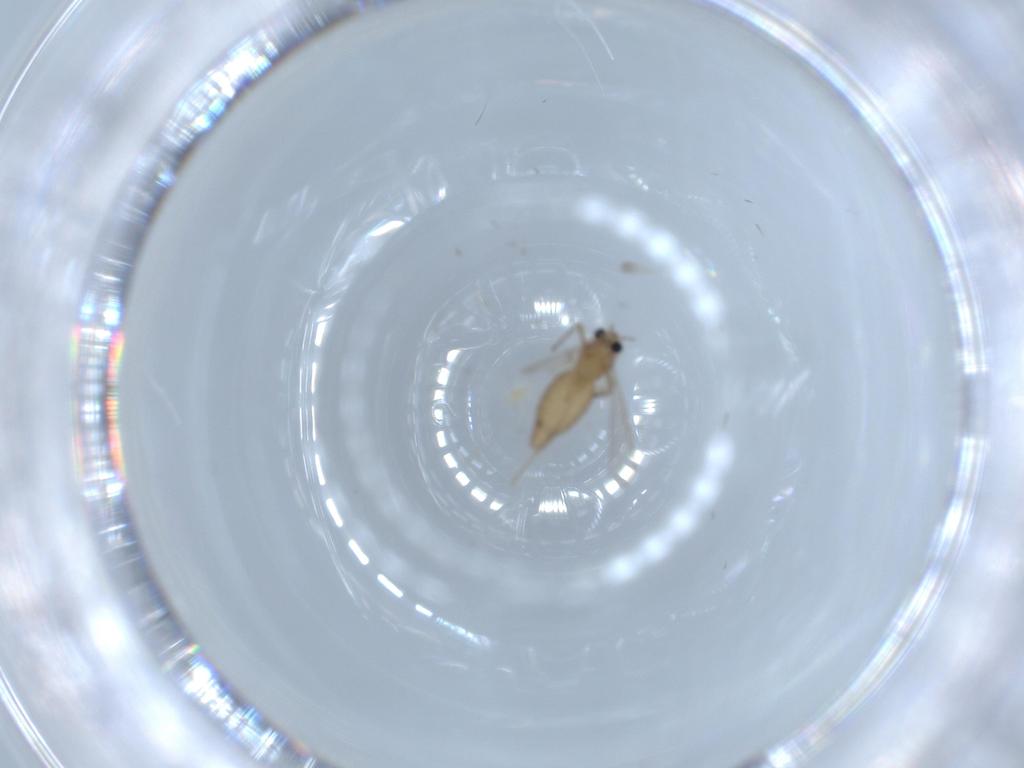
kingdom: Animalia
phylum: Arthropoda
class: Insecta
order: Diptera
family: Chironomidae
